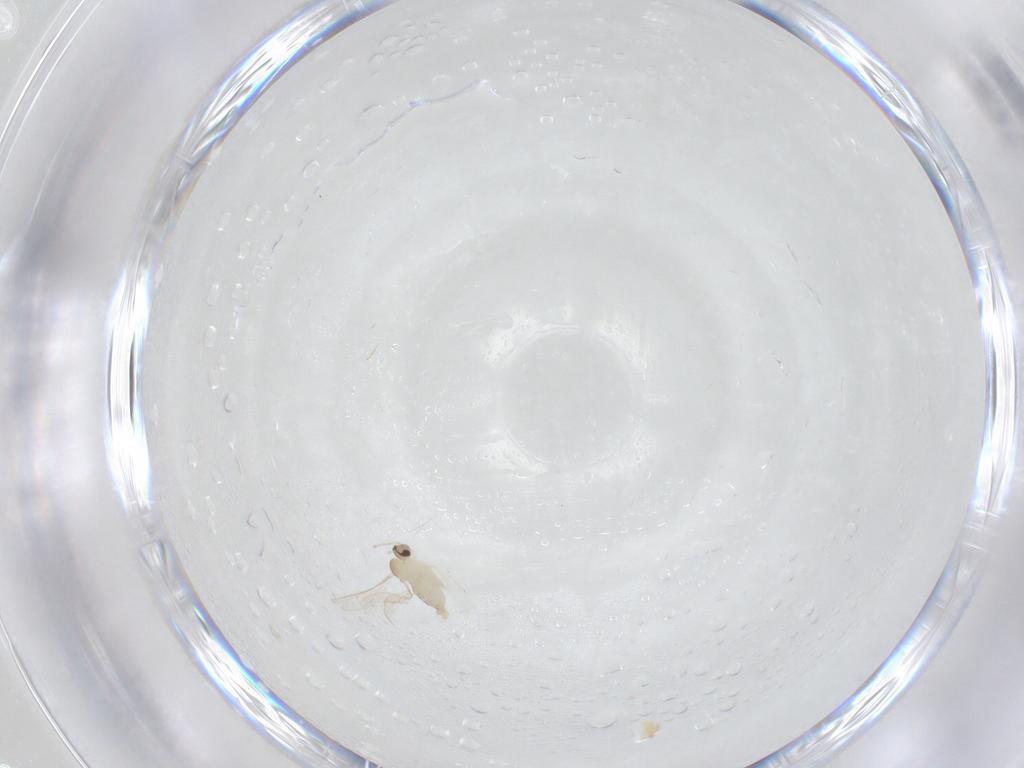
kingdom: Animalia
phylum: Arthropoda
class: Insecta
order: Diptera
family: Cecidomyiidae
